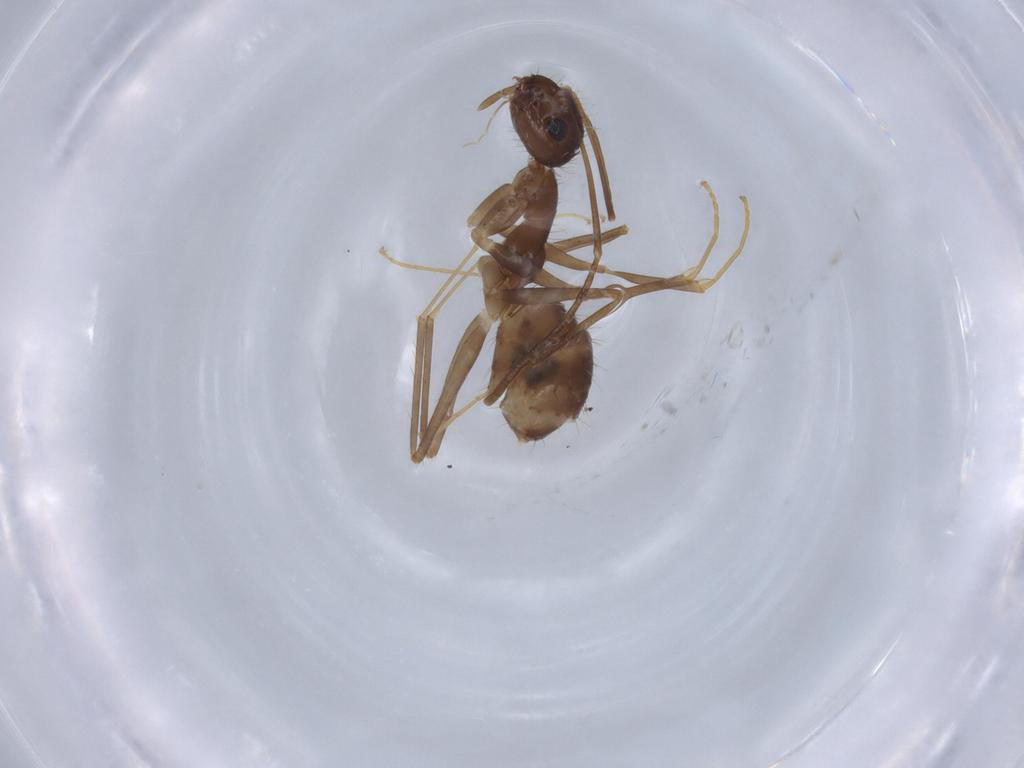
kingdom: Animalia
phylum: Arthropoda
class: Insecta
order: Hymenoptera
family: Formicidae
